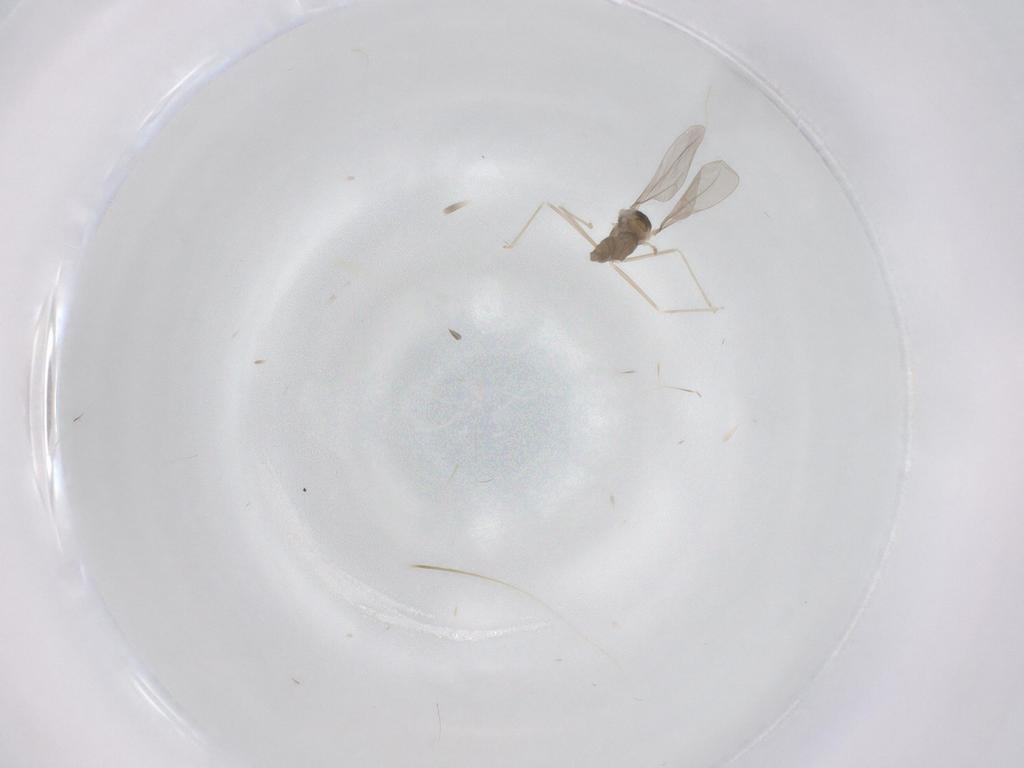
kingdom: Animalia
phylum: Arthropoda
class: Insecta
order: Diptera
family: Cecidomyiidae
